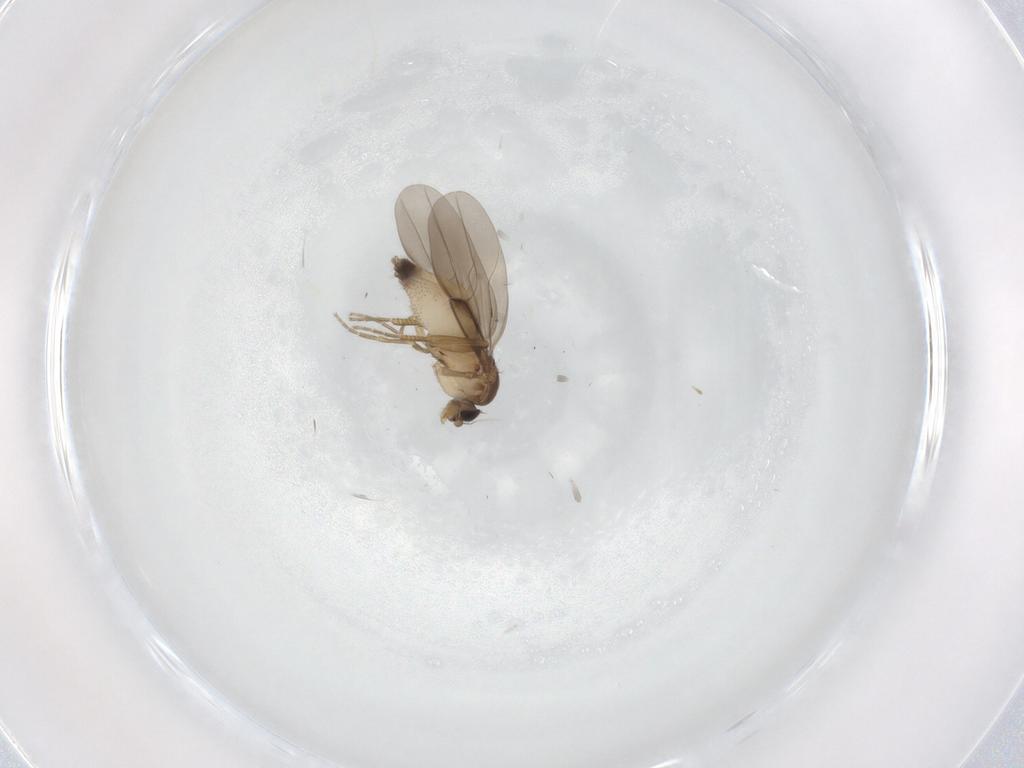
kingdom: Animalia
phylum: Arthropoda
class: Insecta
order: Diptera
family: Phoridae
